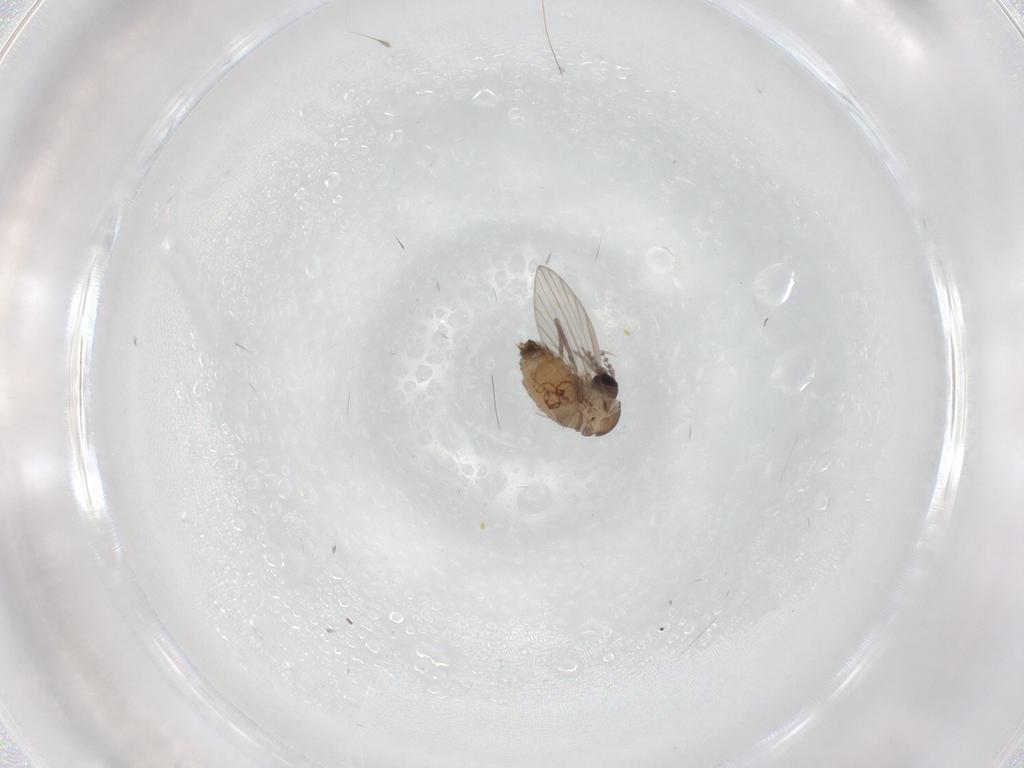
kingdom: Animalia
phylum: Arthropoda
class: Insecta
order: Diptera
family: Psychodidae
